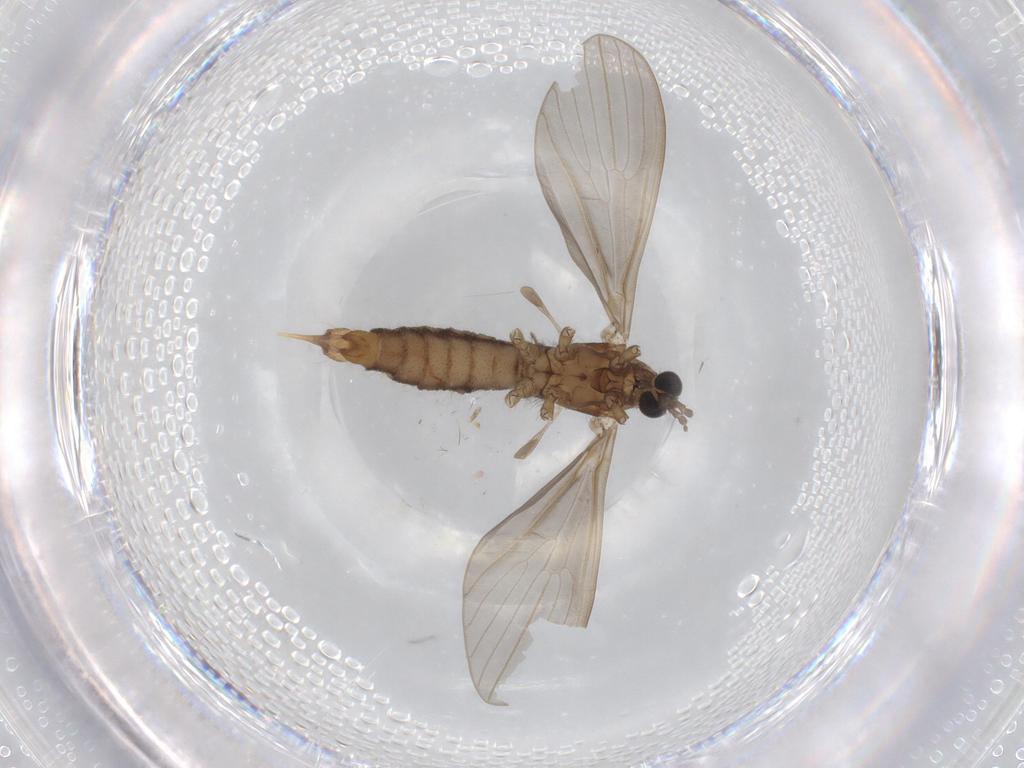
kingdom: Animalia
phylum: Arthropoda
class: Insecta
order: Diptera
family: Limoniidae
